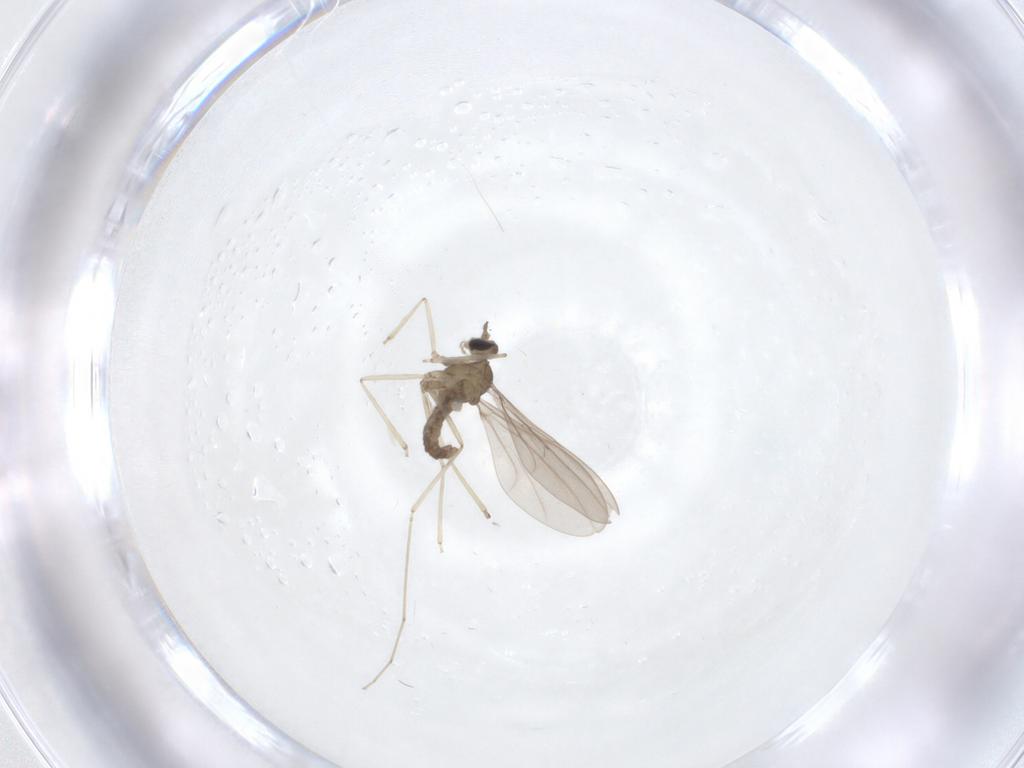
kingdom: Animalia
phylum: Arthropoda
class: Insecta
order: Diptera
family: Cecidomyiidae
